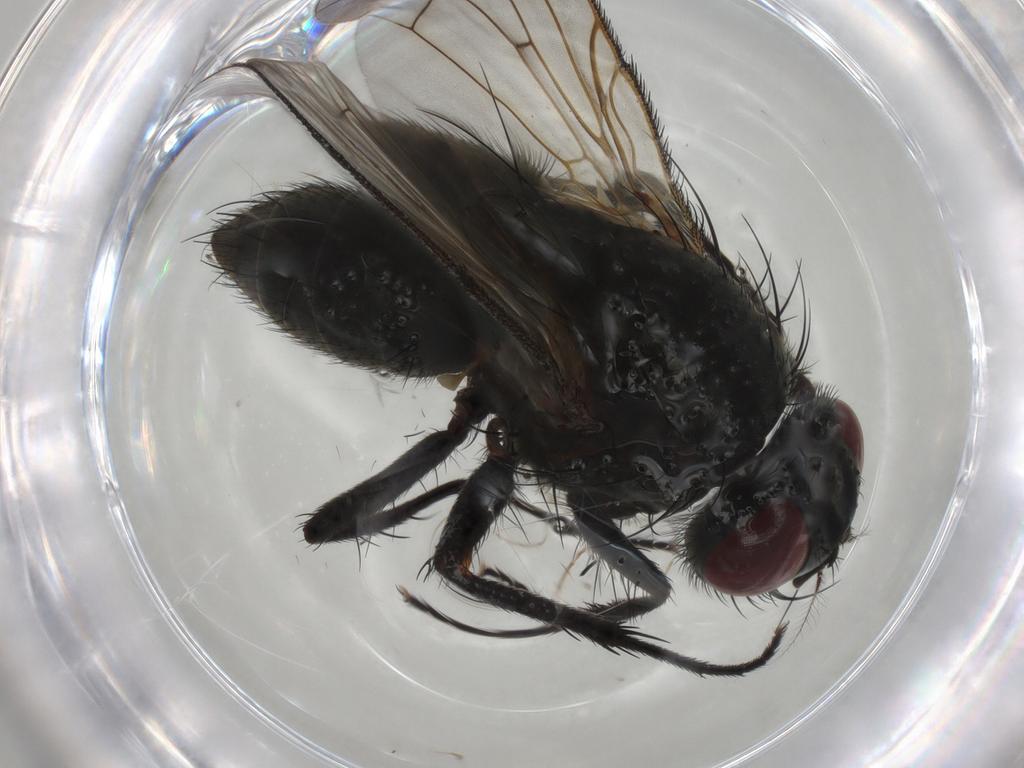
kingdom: Animalia
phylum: Arthropoda
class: Insecta
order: Diptera
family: Muscidae
